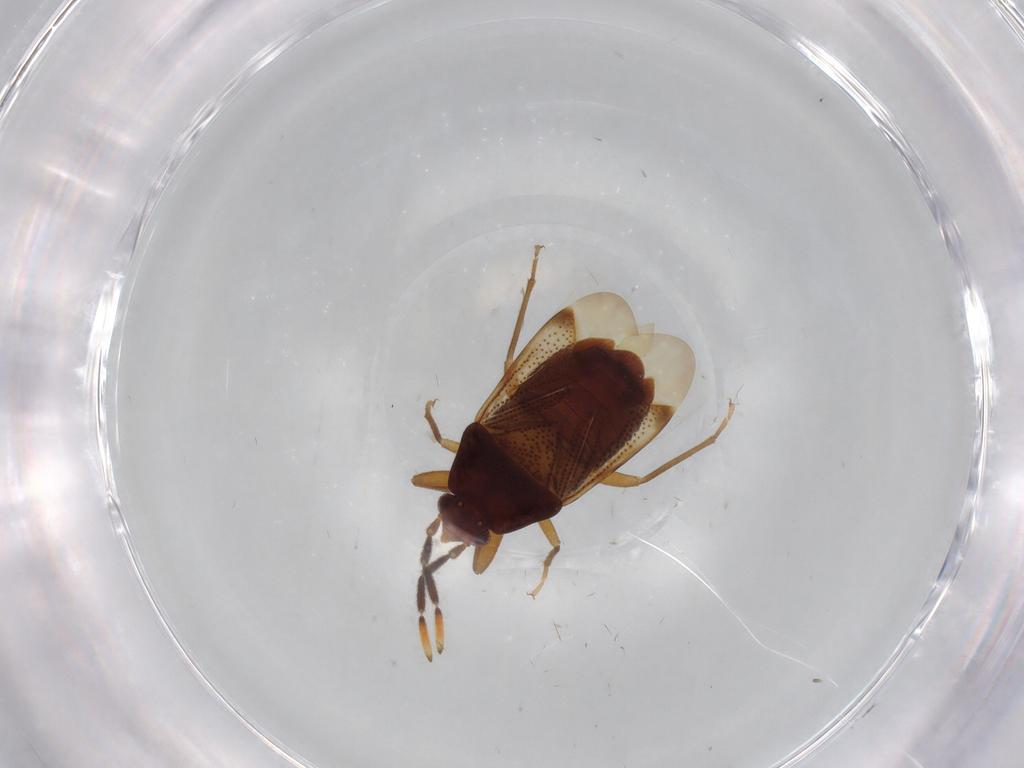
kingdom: Animalia
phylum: Arthropoda
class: Insecta
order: Hemiptera
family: Rhyparochromidae
